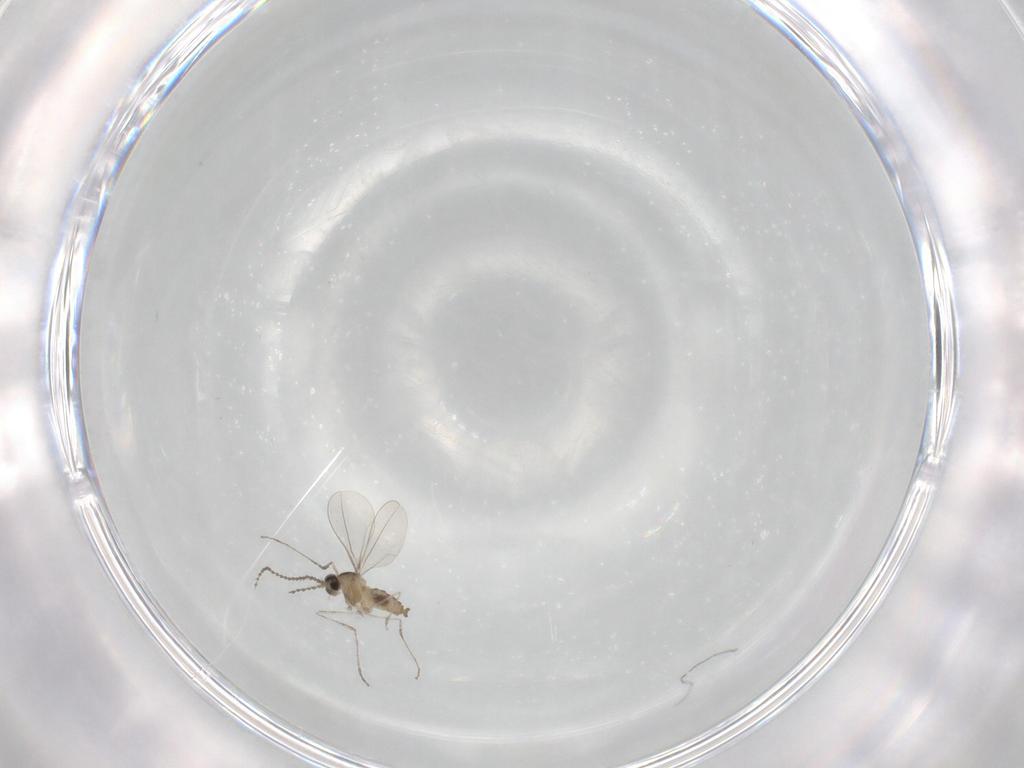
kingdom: Animalia
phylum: Arthropoda
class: Insecta
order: Diptera
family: Cecidomyiidae
